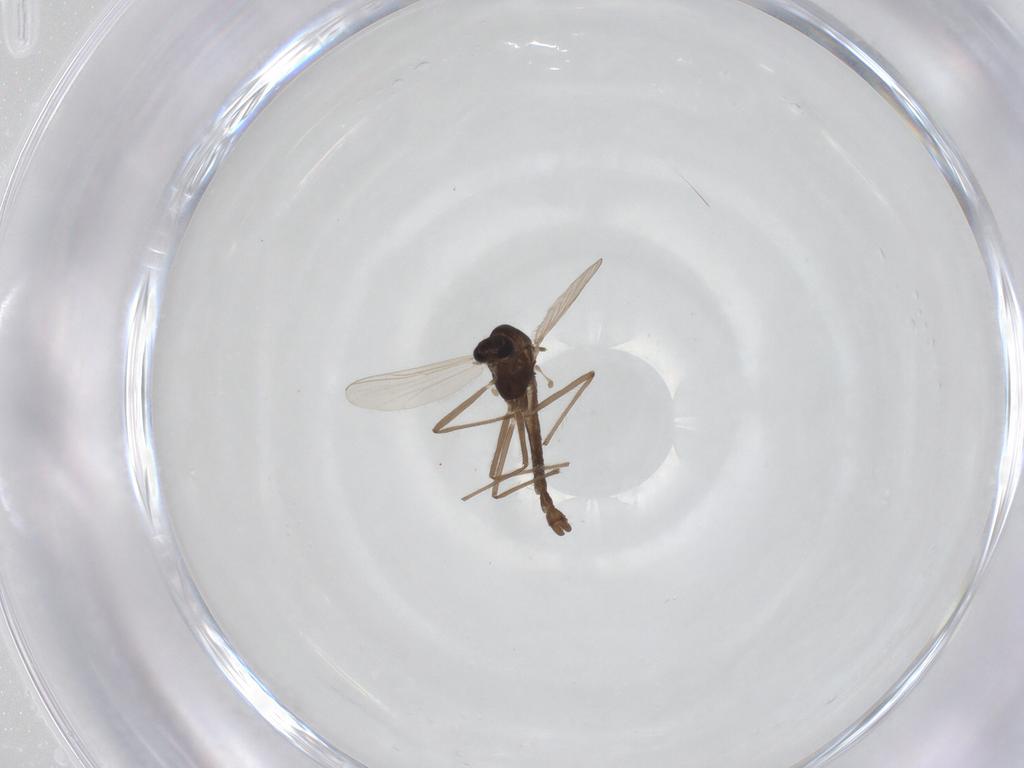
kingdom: Animalia
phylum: Arthropoda
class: Insecta
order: Diptera
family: Chironomidae
